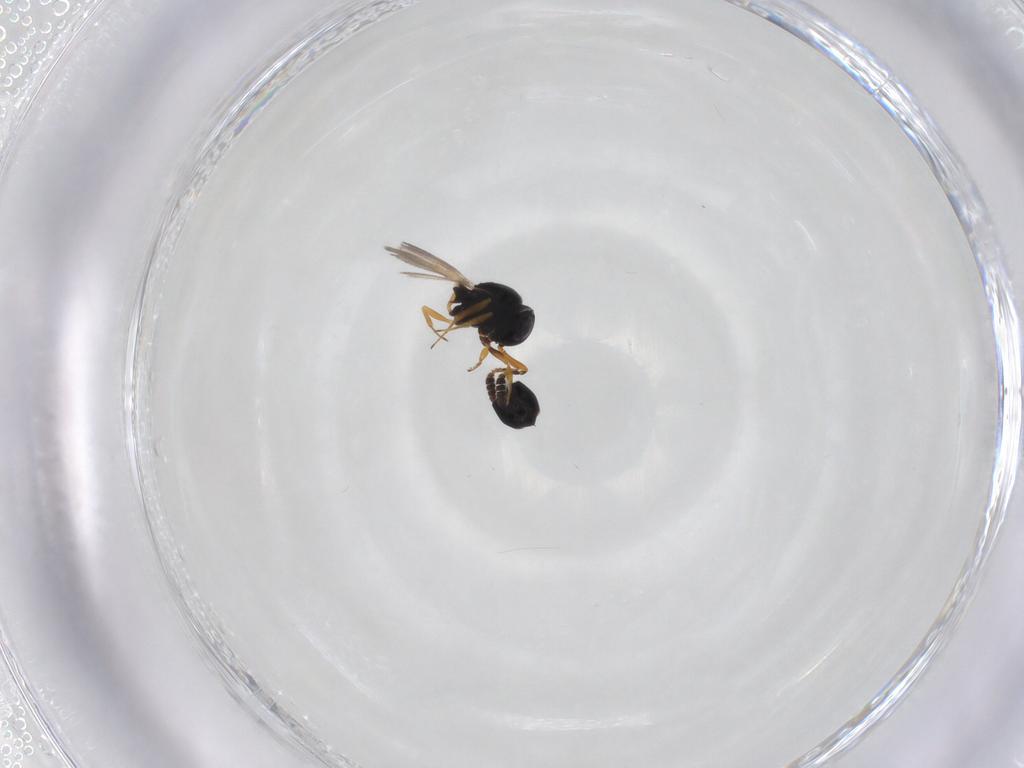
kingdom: Animalia
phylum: Arthropoda
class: Insecta
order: Hymenoptera
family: Scelionidae
